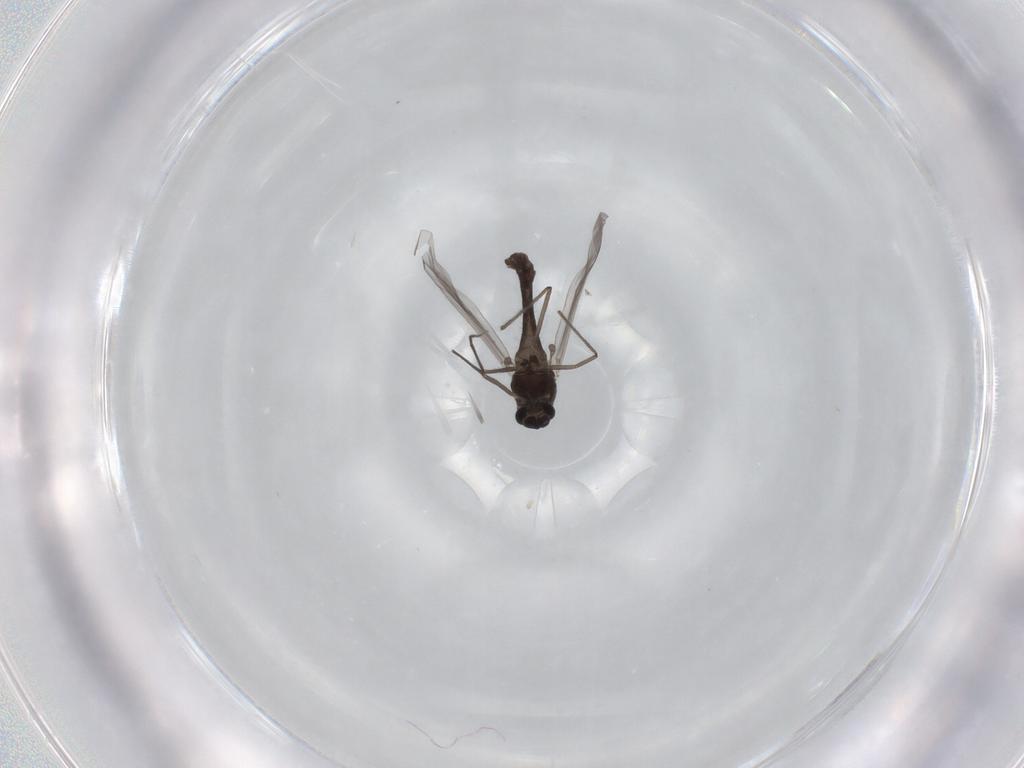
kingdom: Animalia
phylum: Arthropoda
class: Insecta
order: Diptera
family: Chironomidae
